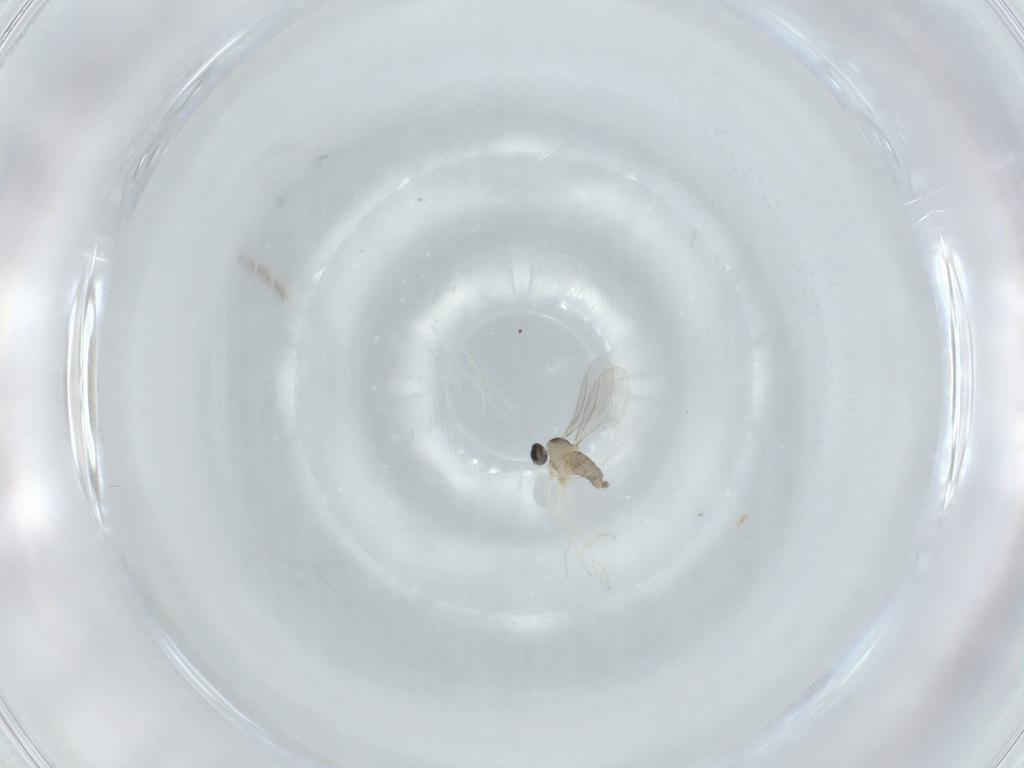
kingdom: Animalia
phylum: Arthropoda
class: Insecta
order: Diptera
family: Cecidomyiidae
